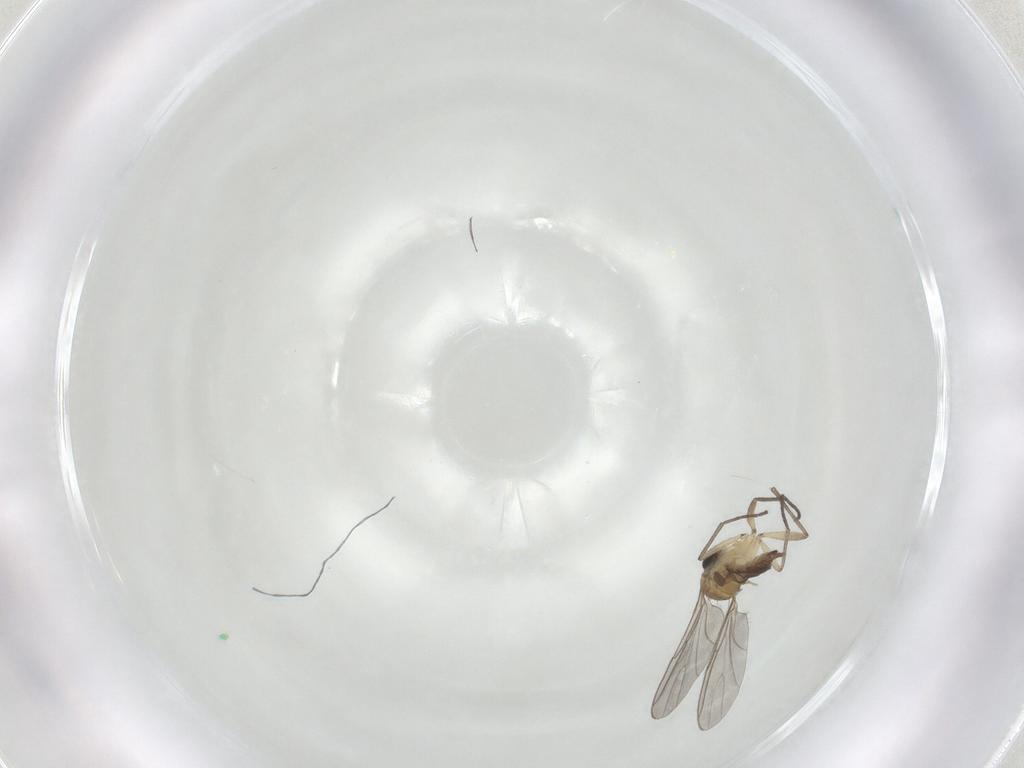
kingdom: Animalia
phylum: Arthropoda
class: Insecta
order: Diptera
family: Sciaridae
